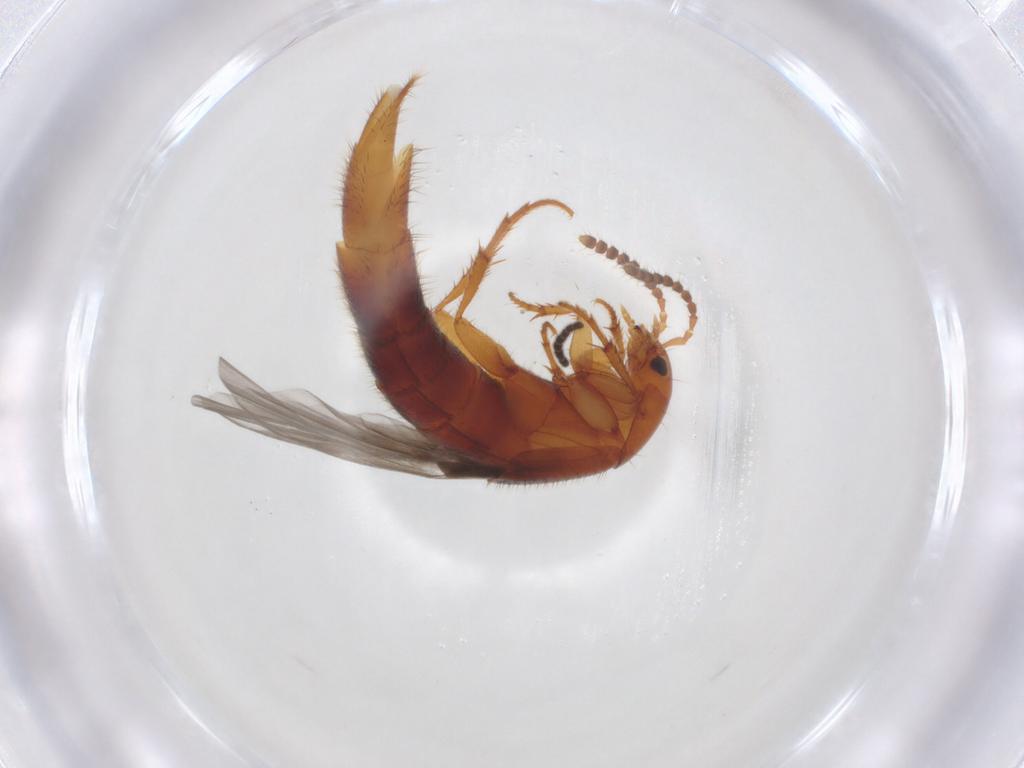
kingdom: Animalia
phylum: Arthropoda
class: Insecta
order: Coleoptera
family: Staphylinidae
